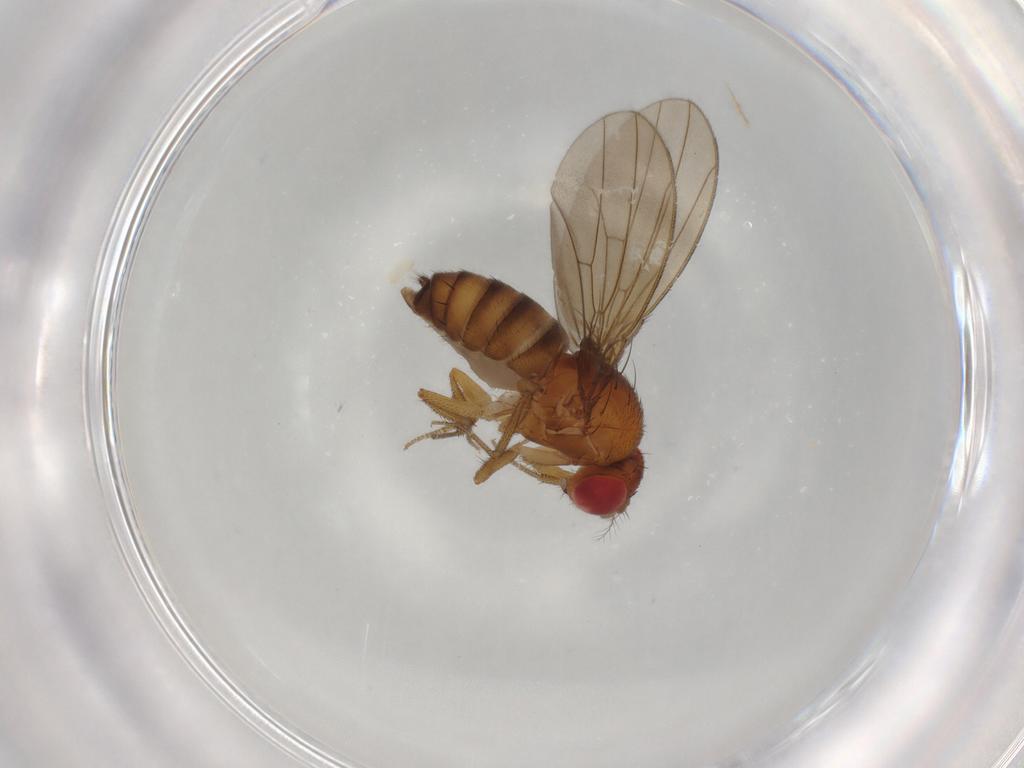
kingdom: Animalia
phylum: Arthropoda
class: Insecta
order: Diptera
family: Drosophilidae
